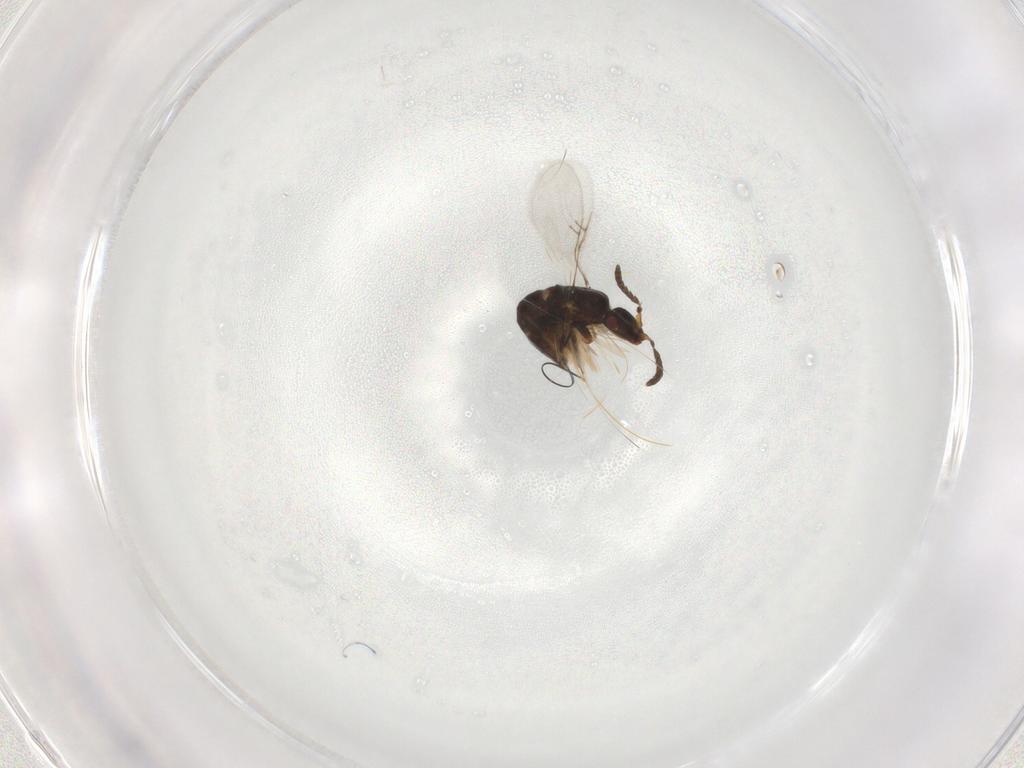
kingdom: Animalia
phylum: Arthropoda
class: Insecta
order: Hymenoptera
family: Agaonidae
